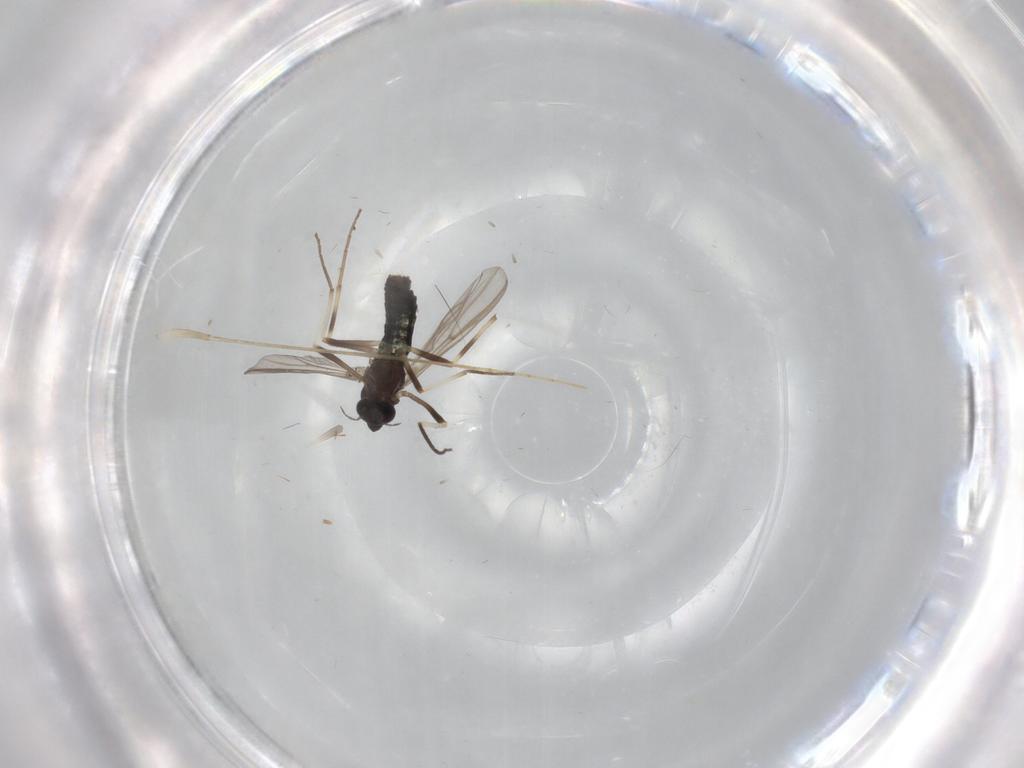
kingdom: Animalia
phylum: Arthropoda
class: Insecta
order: Diptera
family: Chironomidae
